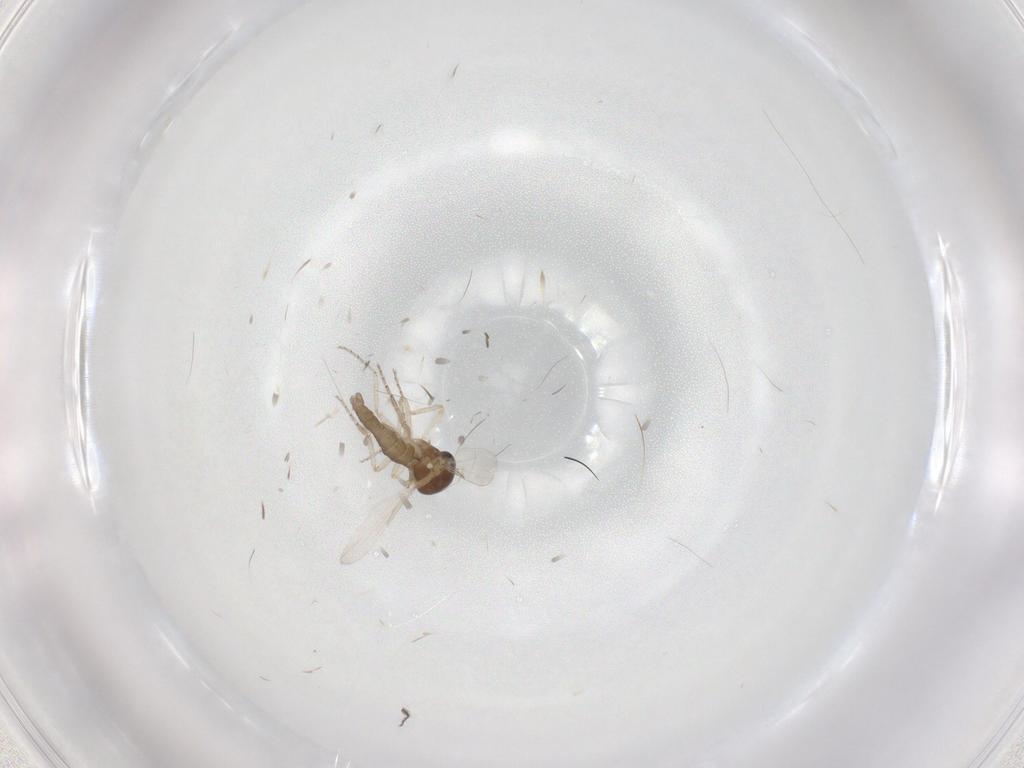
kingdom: Animalia
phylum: Arthropoda
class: Insecta
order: Diptera
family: Ceratopogonidae
